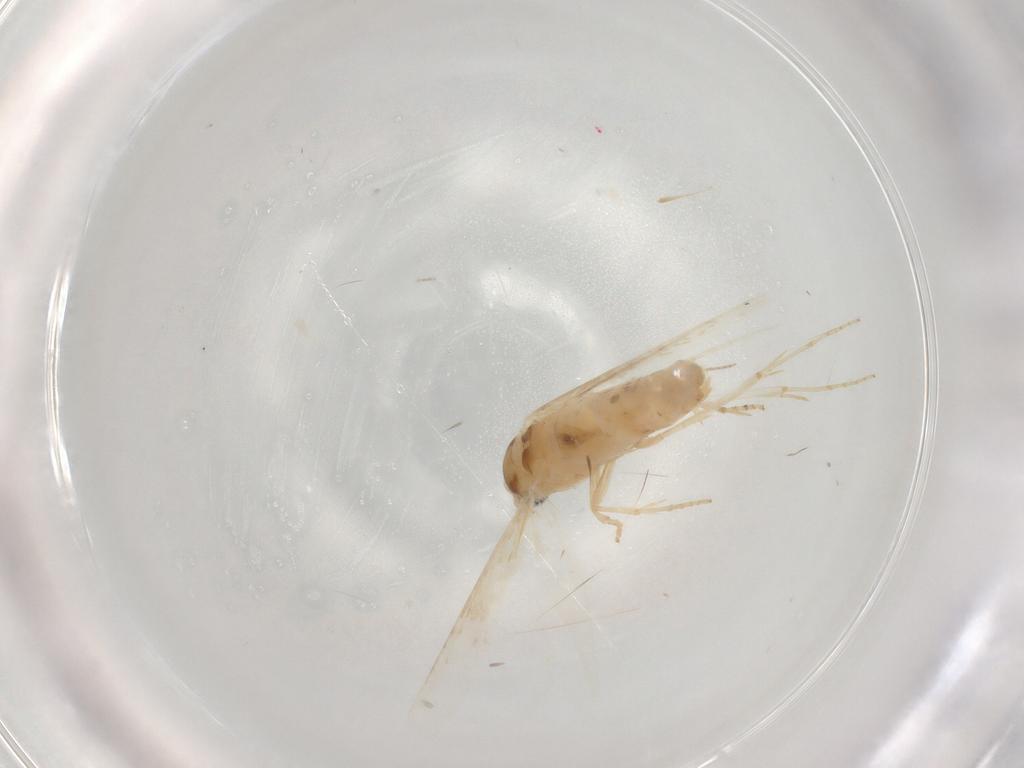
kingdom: Animalia
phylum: Arthropoda
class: Insecta
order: Lepidoptera
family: Bucculatricidae
